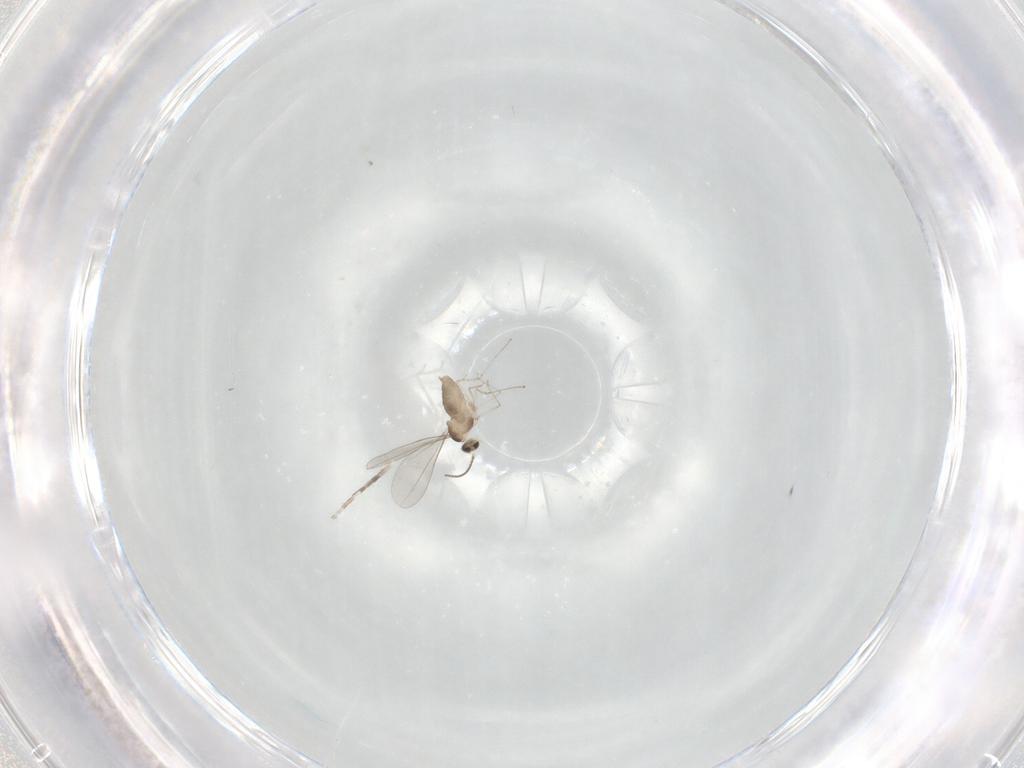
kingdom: Animalia
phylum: Arthropoda
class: Insecta
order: Diptera
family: Cecidomyiidae
